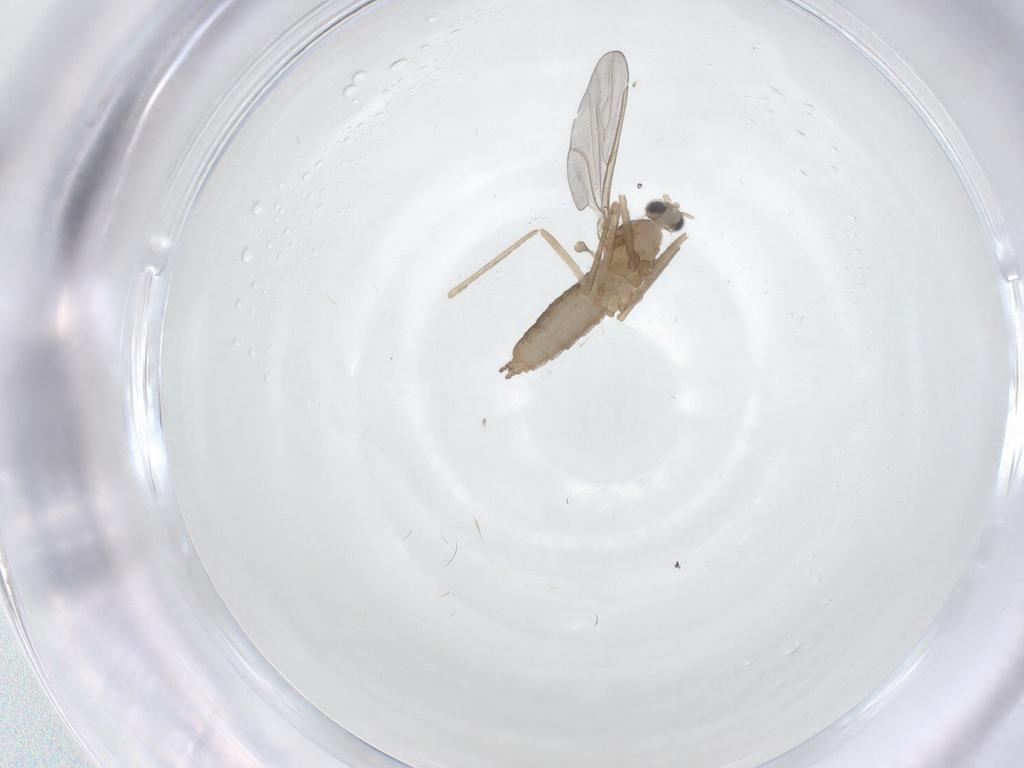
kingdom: Animalia
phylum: Arthropoda
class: Insecta
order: Diptera
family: Cecidomyiidae
